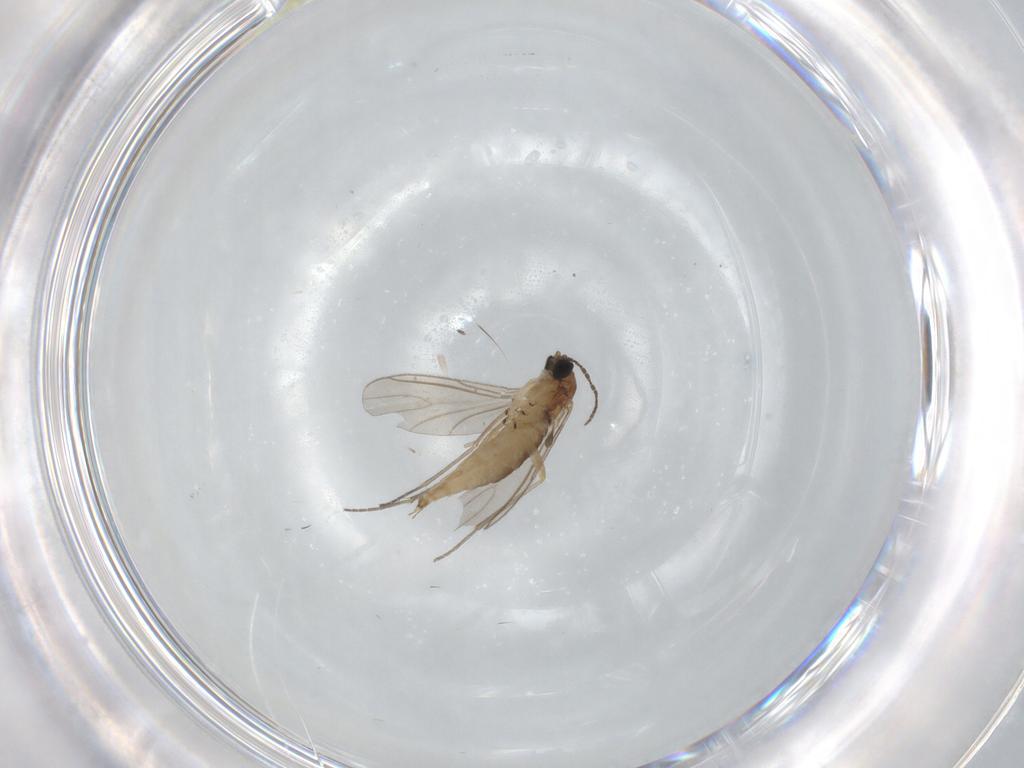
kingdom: Animalia
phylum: Arthropoda
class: Insecta
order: Diptera
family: Sciaridae
